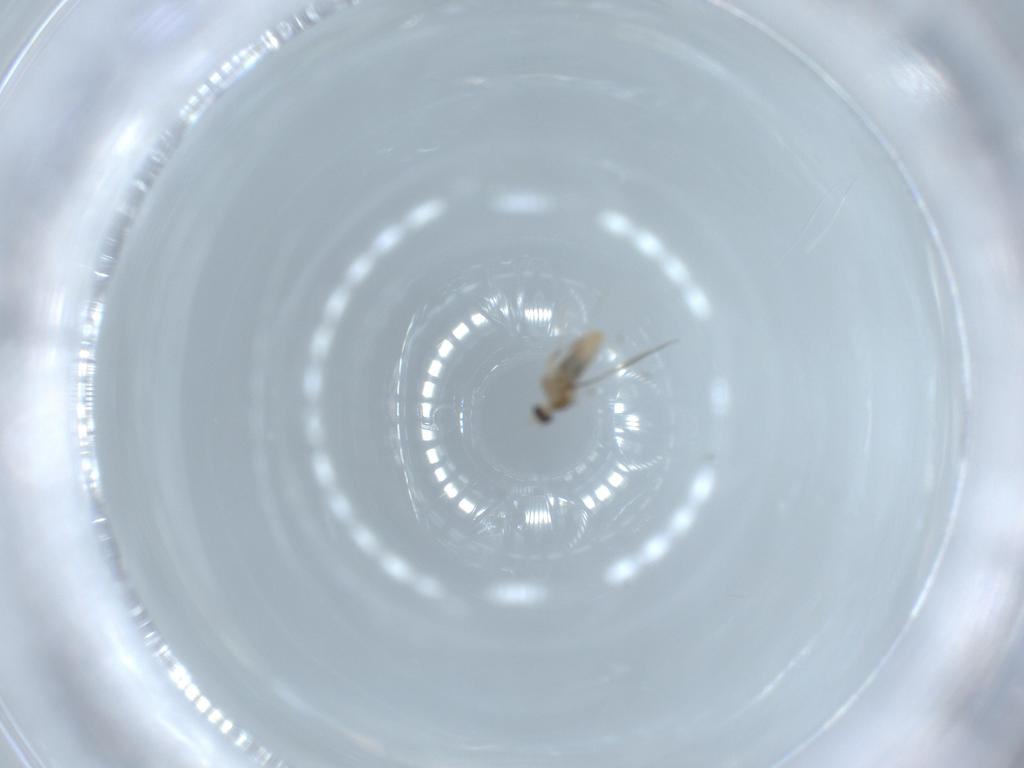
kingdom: Animalia
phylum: Arthropoda
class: Insecta
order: Diptera
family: Cecidomyiidae
